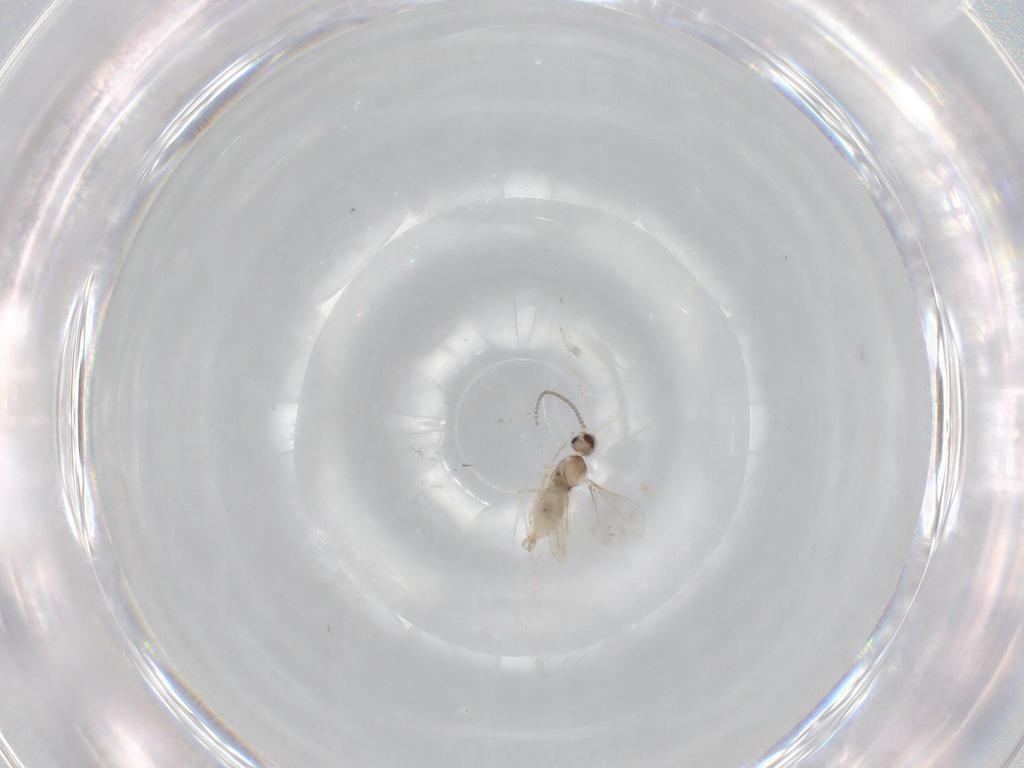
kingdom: Animalia
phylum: Arthropoda
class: Insecta
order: Diptera
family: Cecidomyiidae
